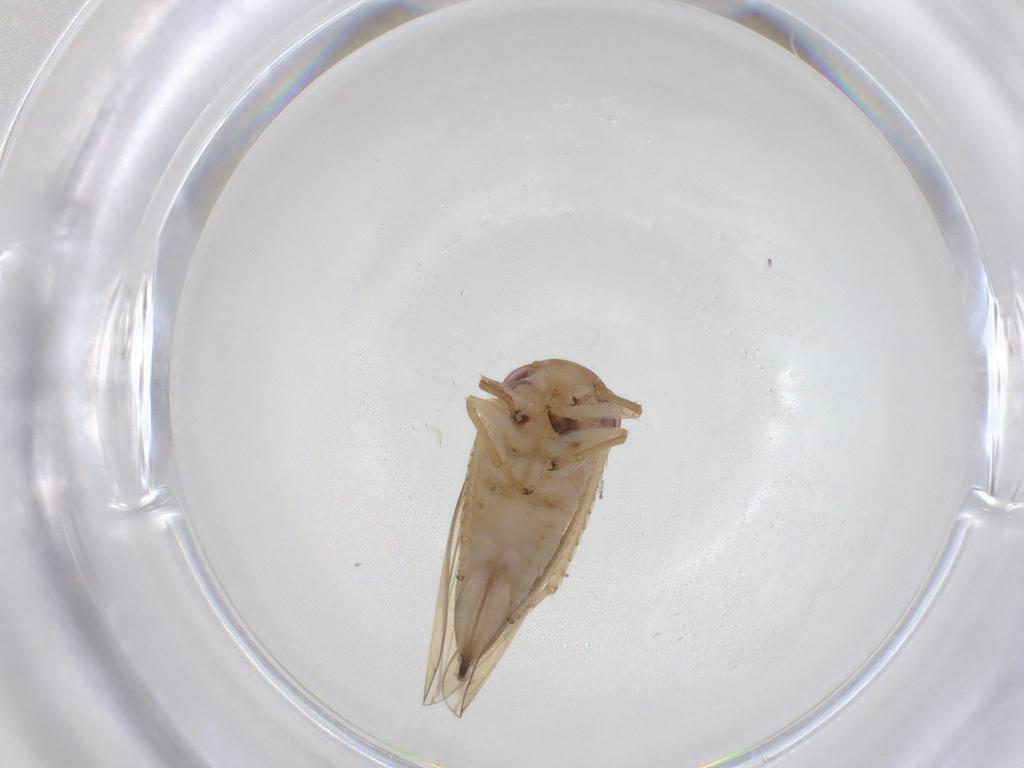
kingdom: Animalia
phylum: Arthropoda
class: Insecta
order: Hemiptera
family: Cicadellidae
